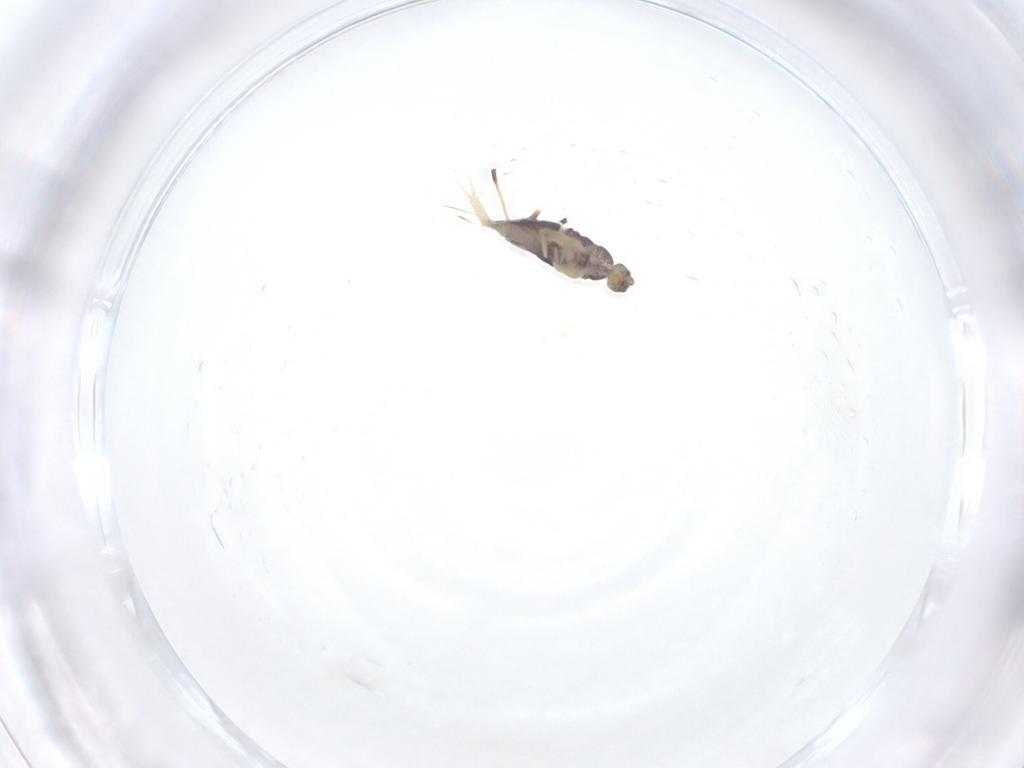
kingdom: Animalia
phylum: Arthropoda
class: Collembola
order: Entomobryomorpha
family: Entomobryidae
